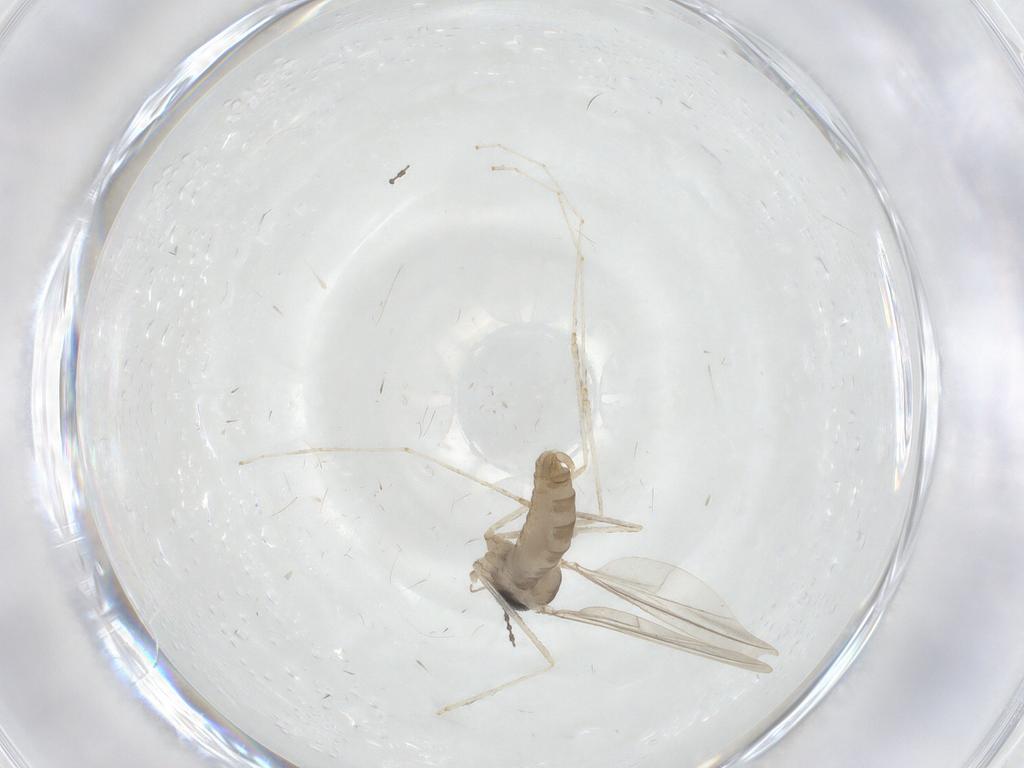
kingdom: Animalia
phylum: Arthropoda
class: Insecta
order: Diptera
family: Cecidomyiidae
